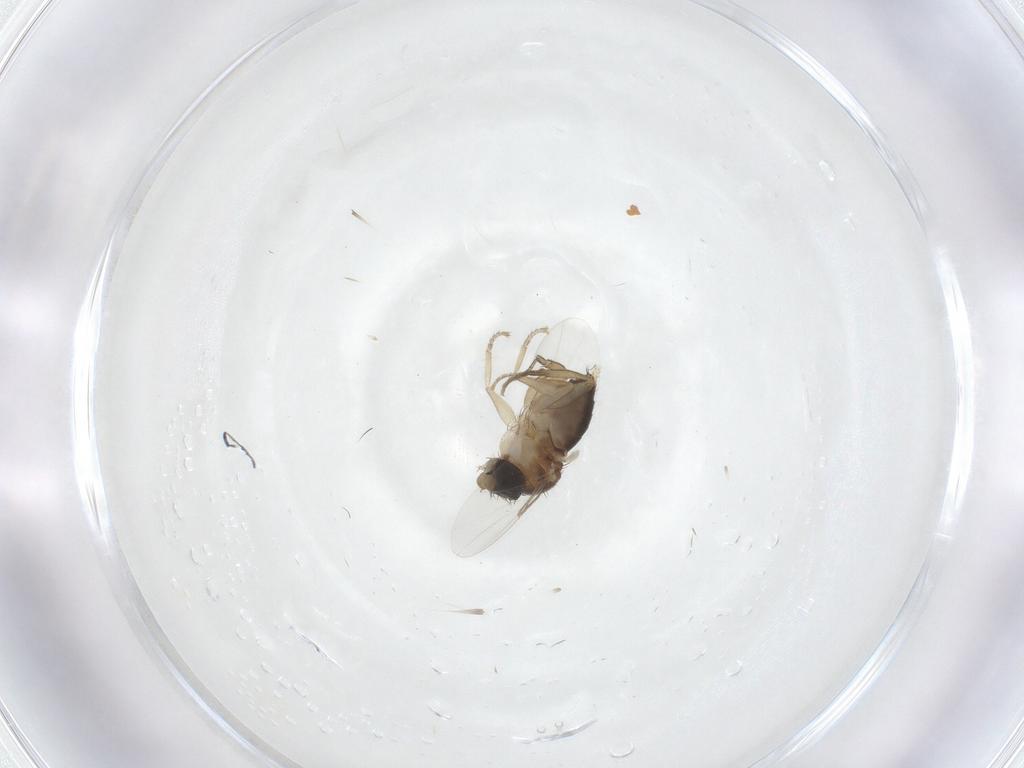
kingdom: Animalia
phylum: Arthropoda
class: Insecta
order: Diptera
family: Phoridae
